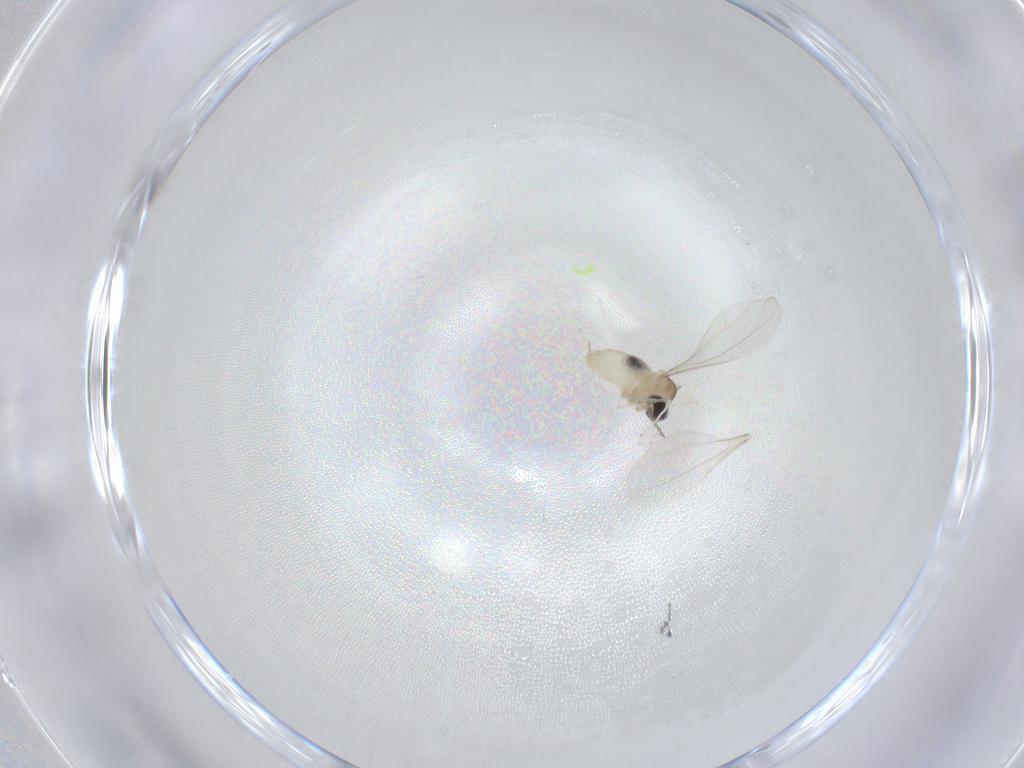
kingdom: Animalia
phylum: Arthropoda
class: Insecta
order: Diptera
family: Cecidomyiidae
